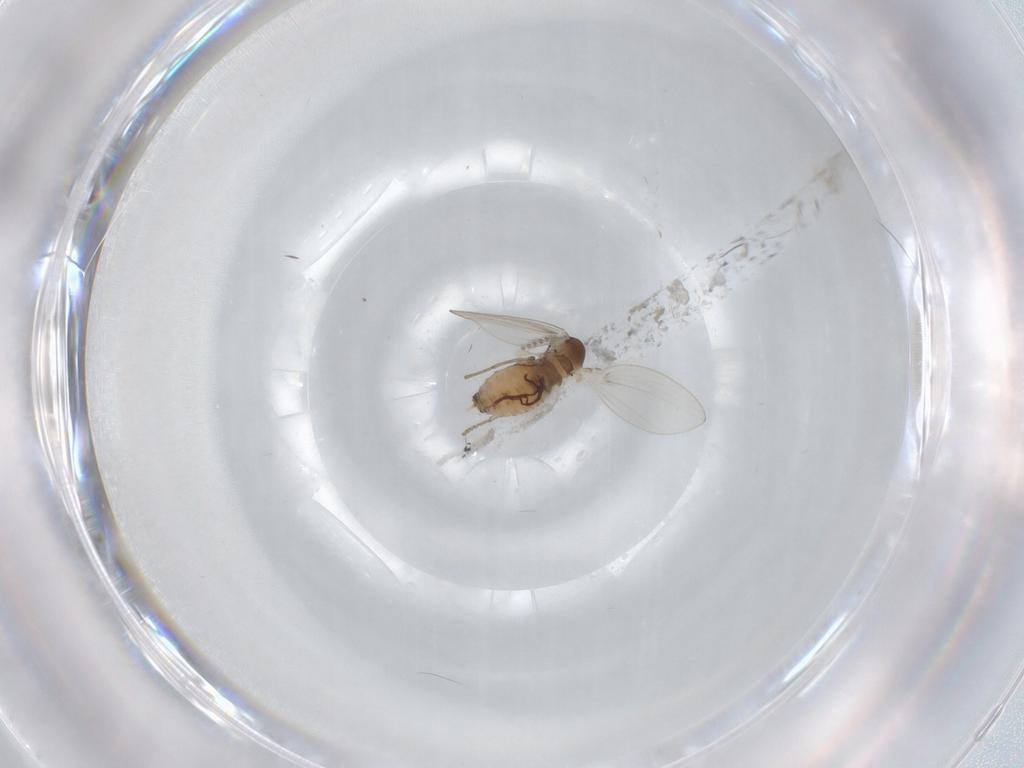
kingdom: Animalia
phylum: Arthropoda
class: Insecta
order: Diptera
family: Psychodidae
